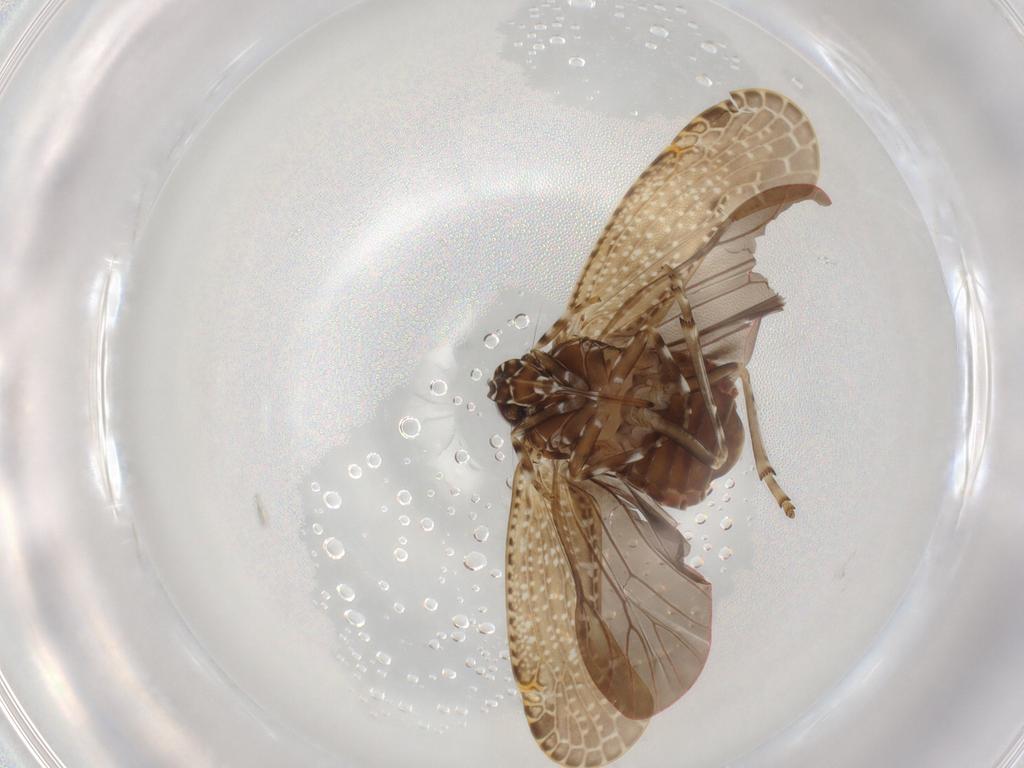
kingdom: Animalia
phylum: Arthropoda
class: Insecta
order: Hemiptera
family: Achilidae
